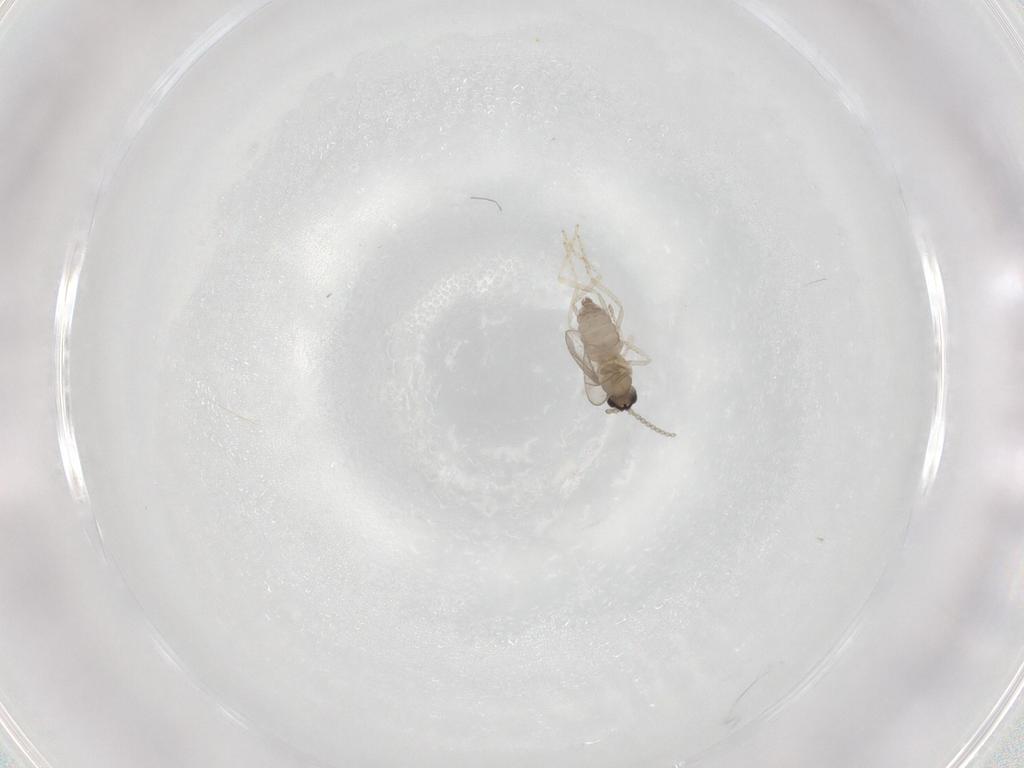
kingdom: Animalia
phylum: Arthropoda
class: Insecta
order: Diptera
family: Cecidomyiidae
